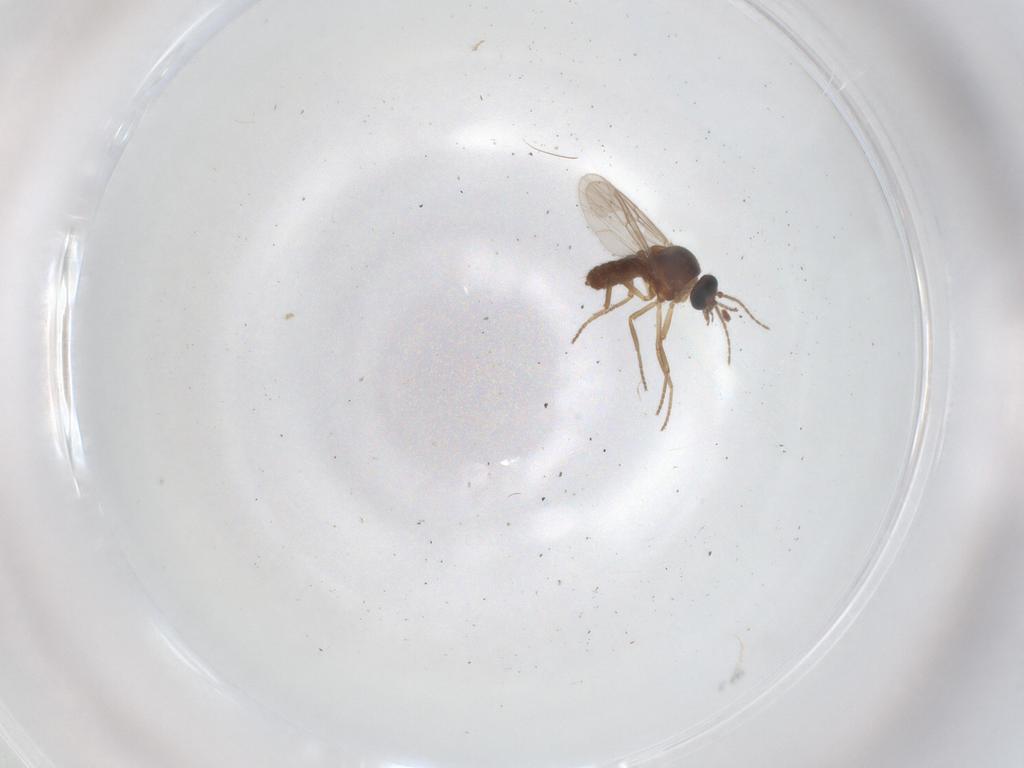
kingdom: Animalia
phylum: Arthropoda
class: Insecta
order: Diptera
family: Ceratopogonidae
